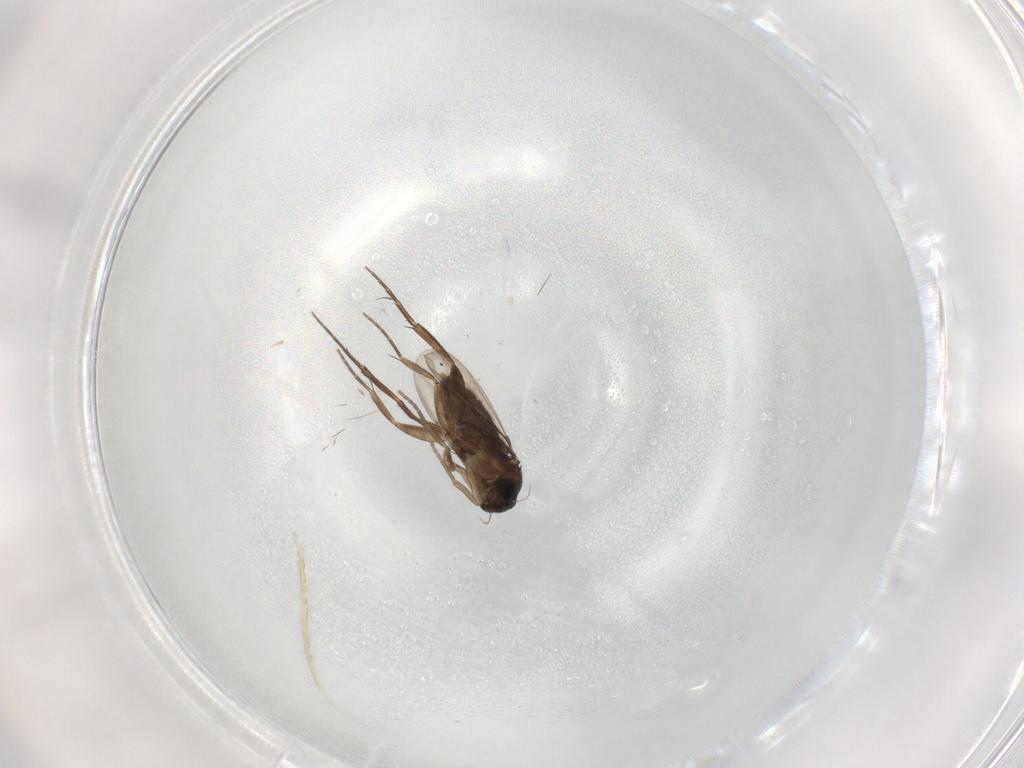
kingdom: Animalia
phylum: Arthropoda
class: Insecta
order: Diptera
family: Phoridae
